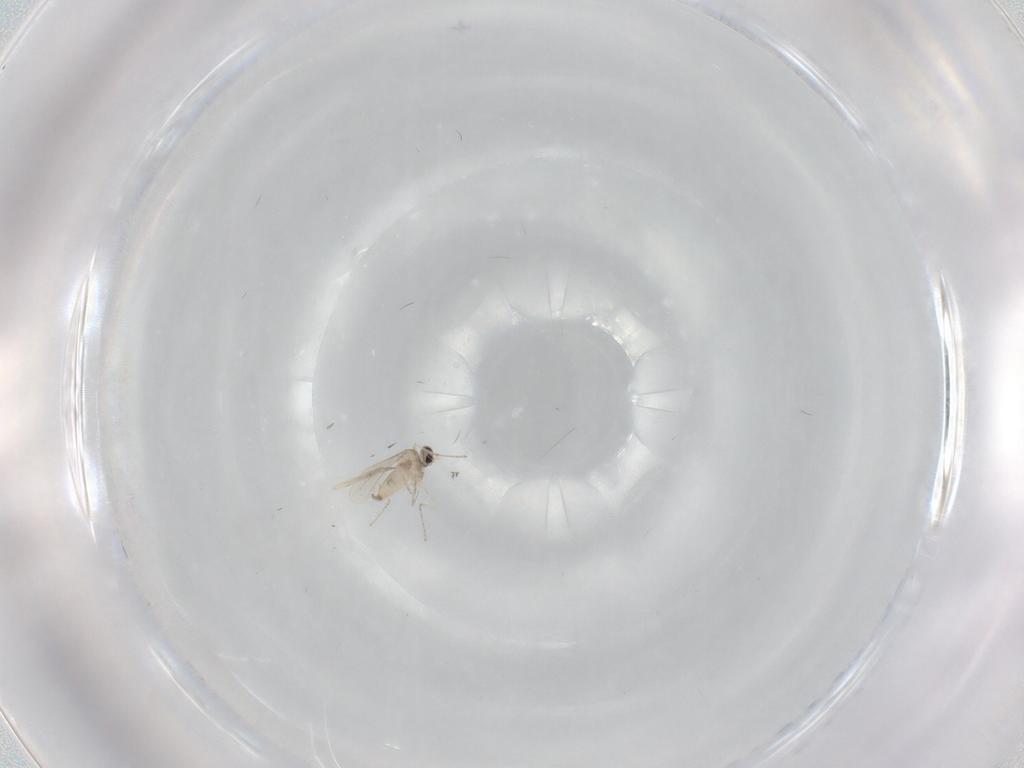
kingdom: Animalia
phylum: Arthropoda
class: Insecta
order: Diptera
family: Cecidomyiidae
